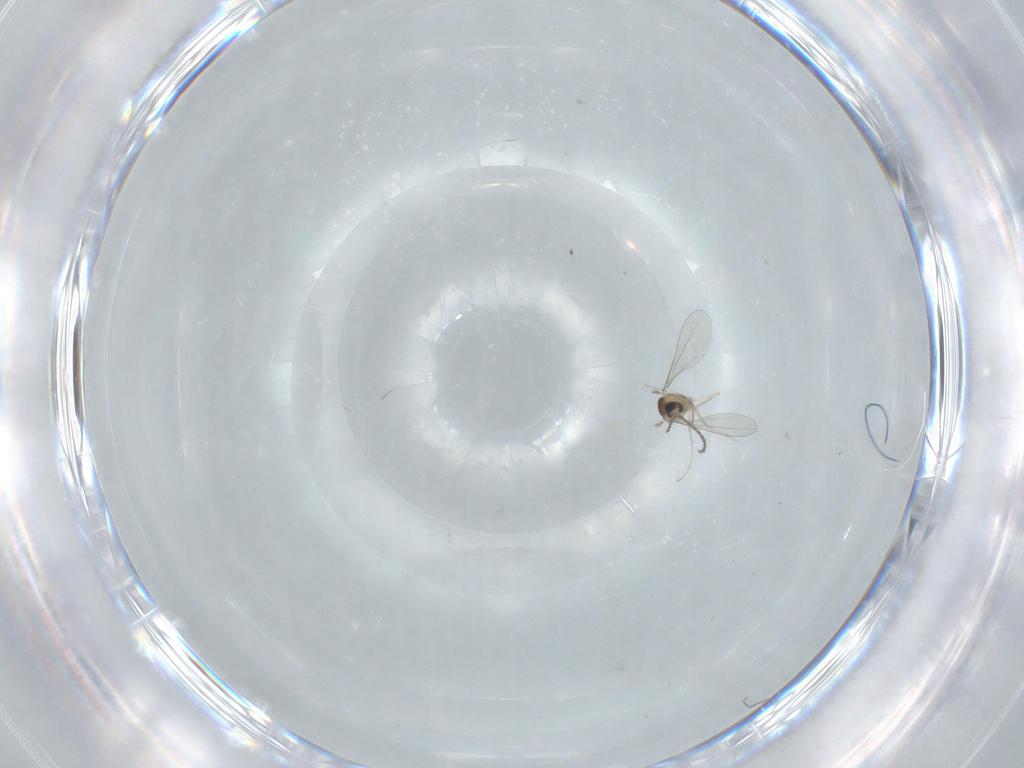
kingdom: Animalia
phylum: Arthropoda
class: Insecta
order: Diptera
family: Cecidomyiidae
